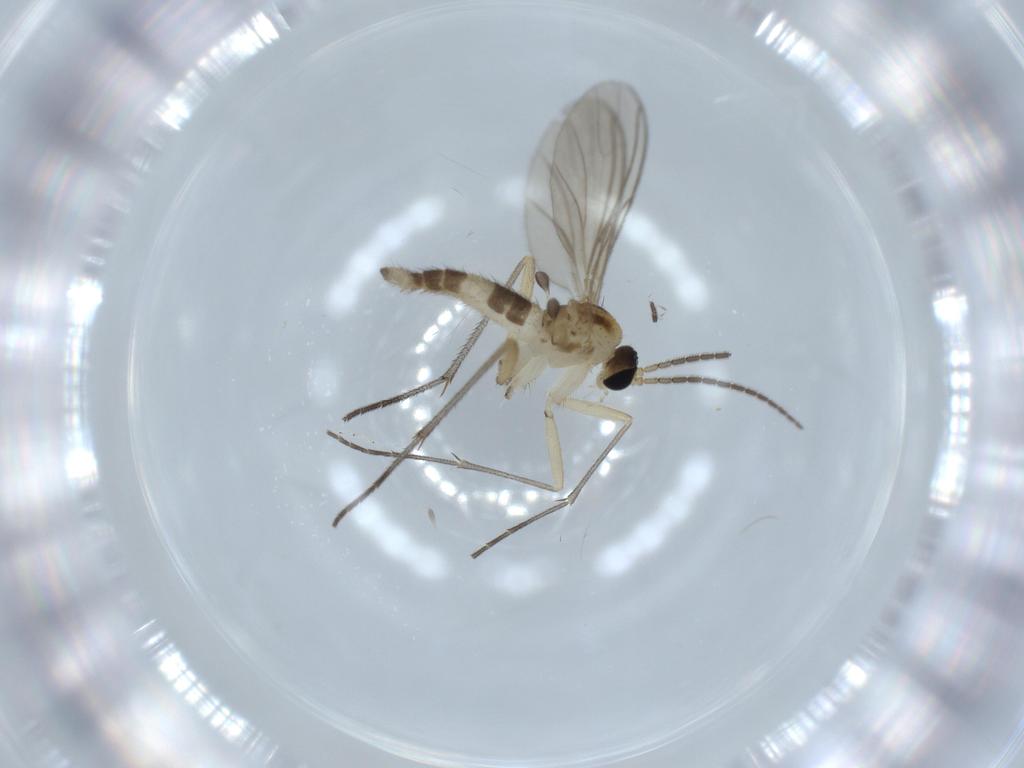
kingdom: Animalia
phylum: Arthropoda
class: Insecta
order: Diptera
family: Sciaridae
